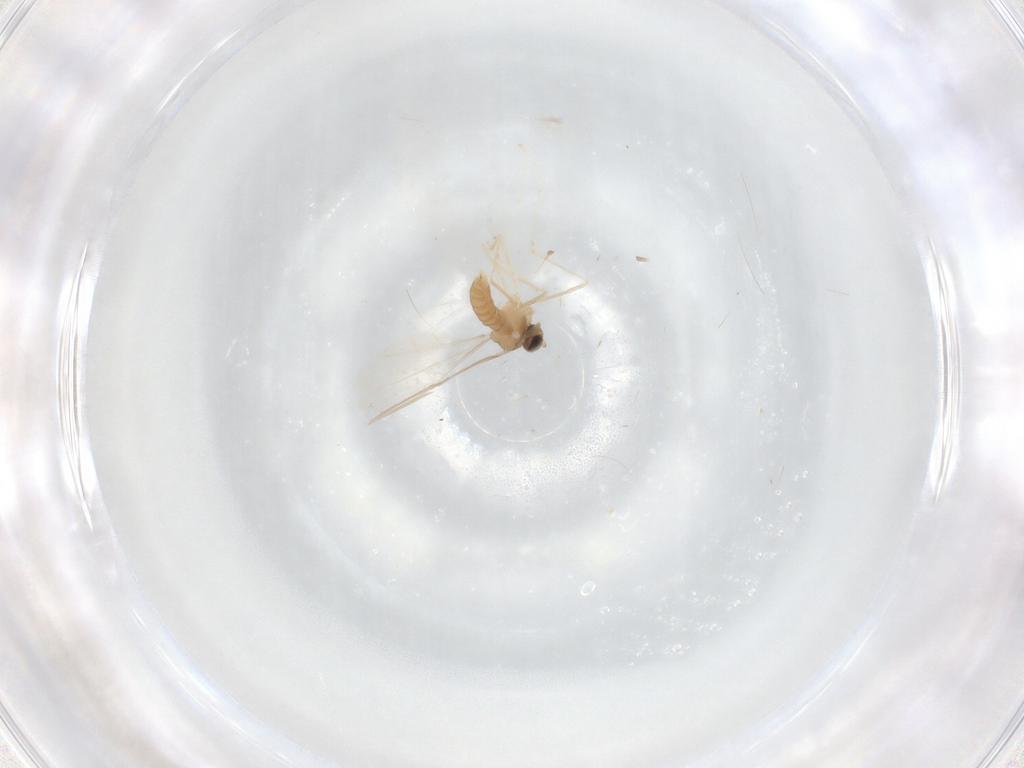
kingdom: Animalia
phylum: Arthropoda
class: Insecta
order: Diptera
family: Cecidomyiidae
